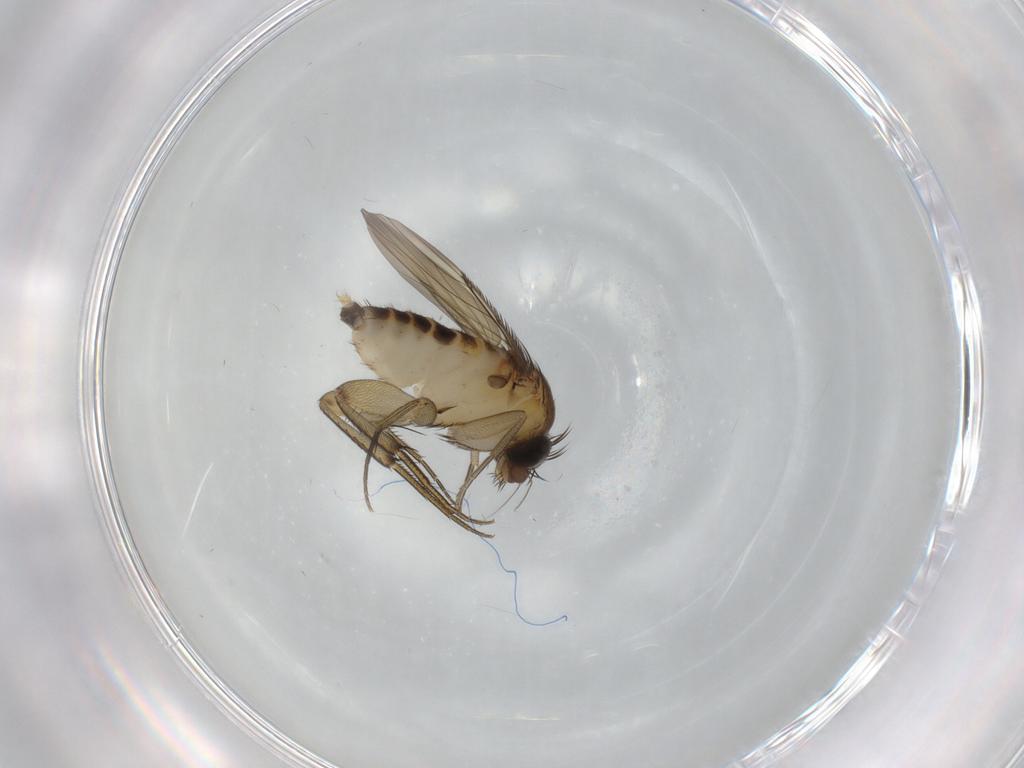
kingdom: Animalia
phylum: Arthropoda
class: Insecta
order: Diptera
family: Phoridae
